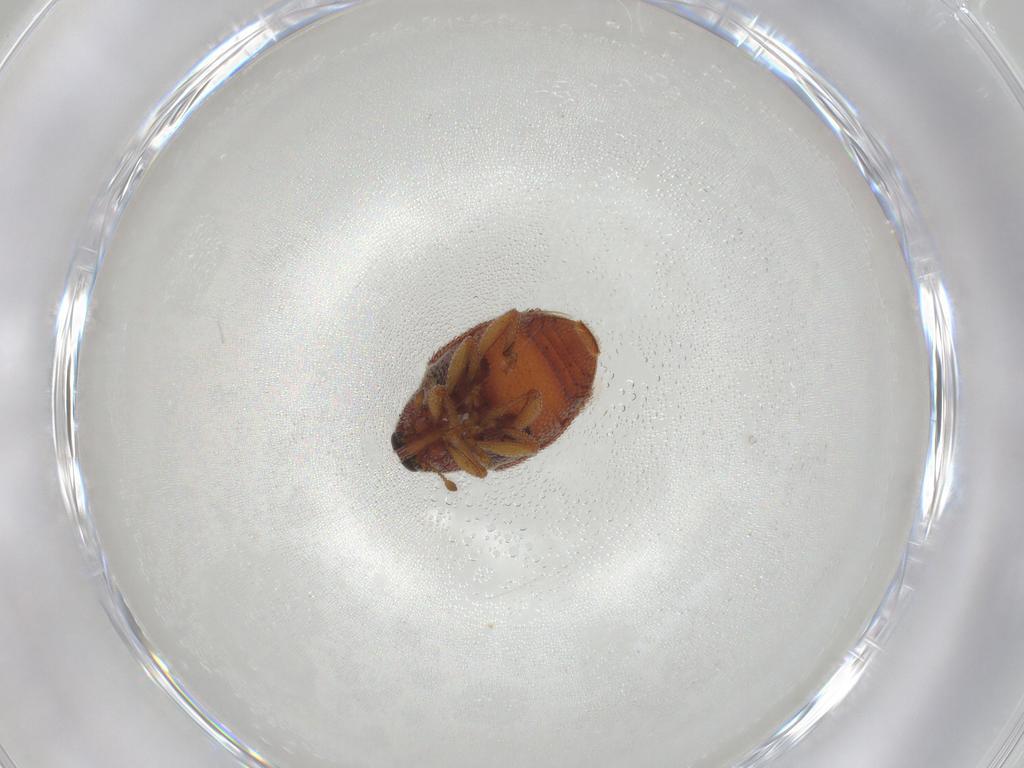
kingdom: Animalia
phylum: Arthropoda
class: Insecta
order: Coleoptera
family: Curculionidae
